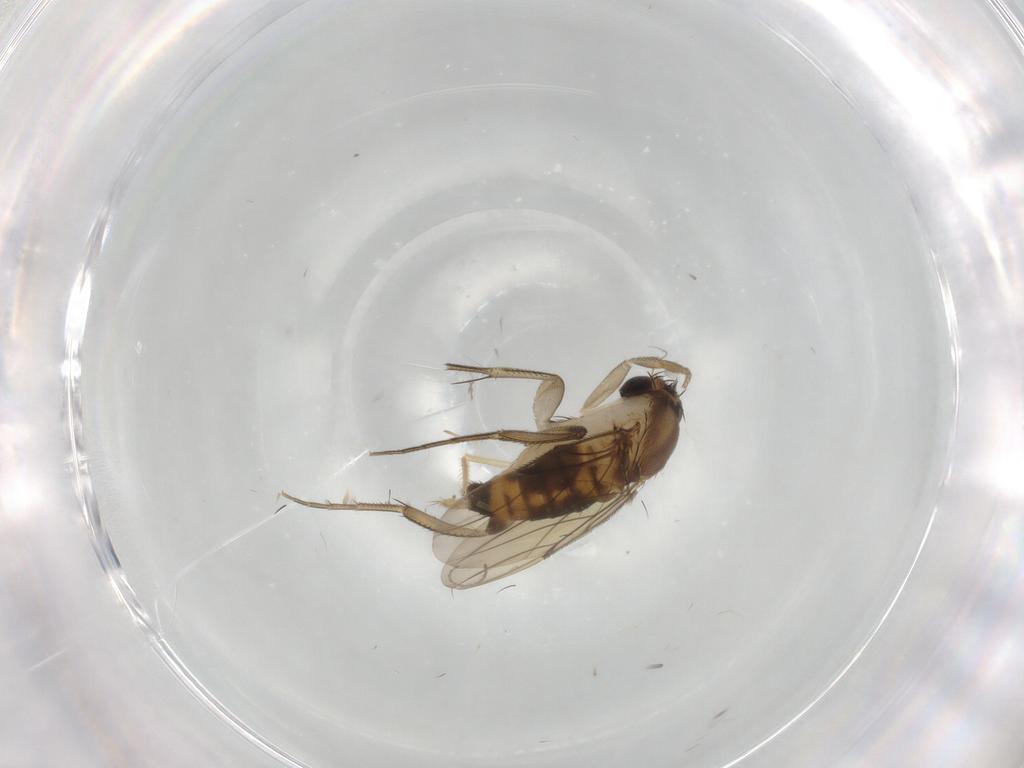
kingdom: Animalia
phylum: Arthropoda
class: Insecta
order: Diptera
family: Phoridae
